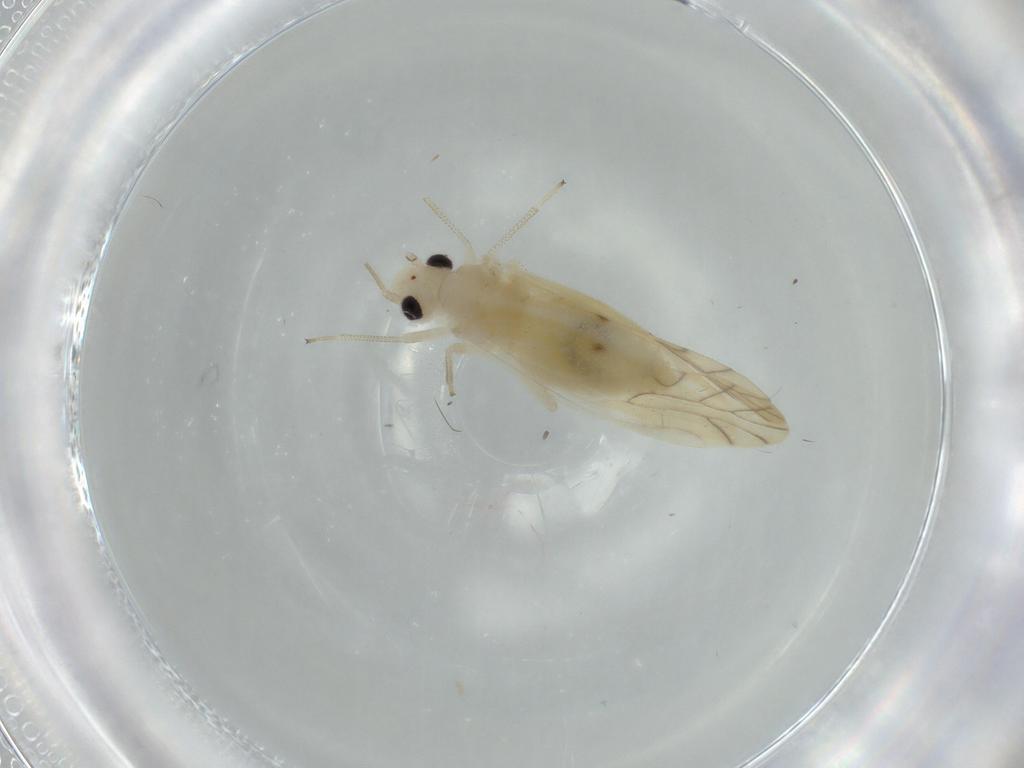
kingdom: Animalia
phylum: Arthropoda
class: Insecta
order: Psocodea
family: Caeciliusidae
